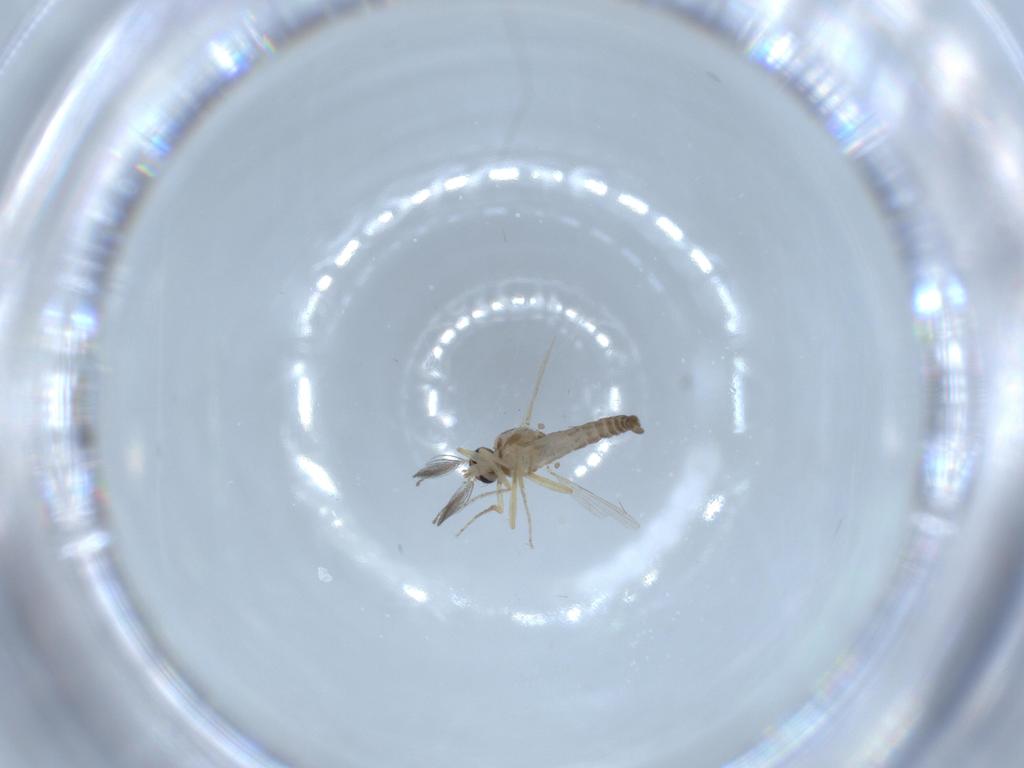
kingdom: Animalia
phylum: Arthropoda
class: Insecta
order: Diptera
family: Ceratopogonidae
